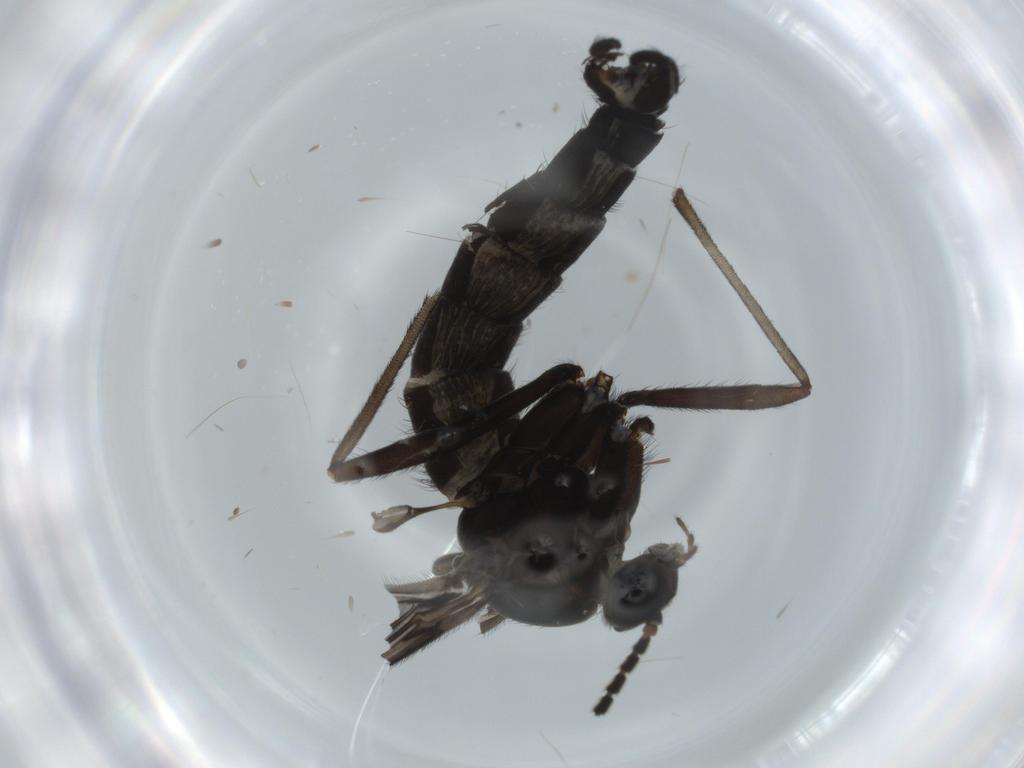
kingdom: Animalia
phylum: Arthropoda
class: Insecta
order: Diptera
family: Sciaridae
